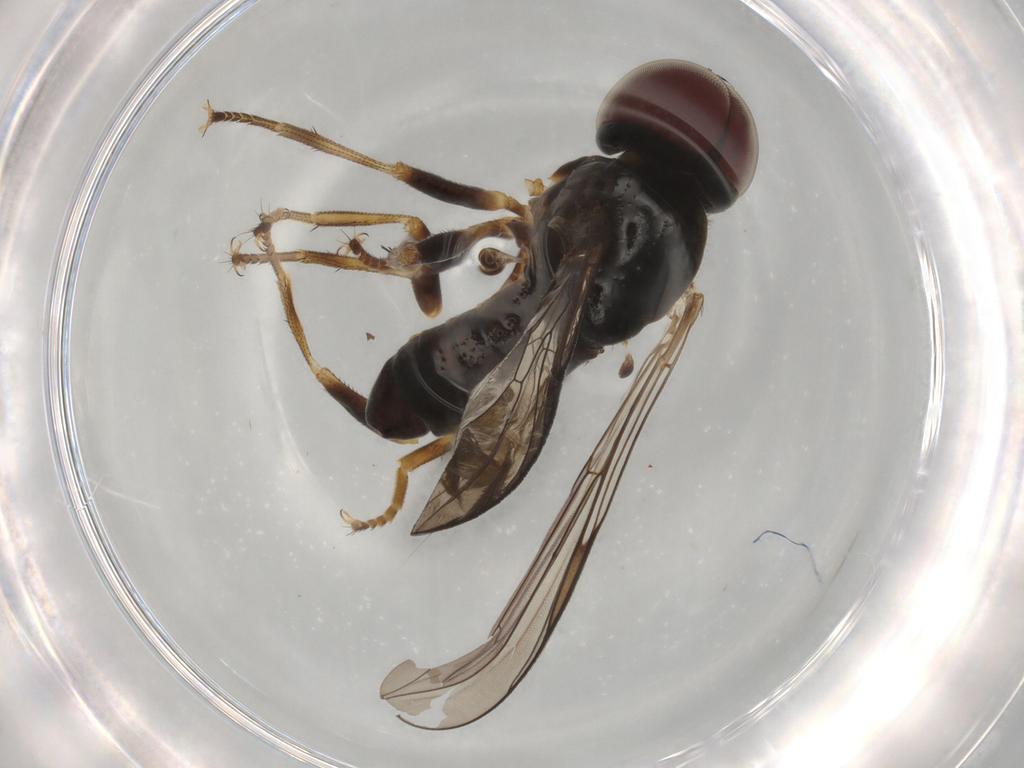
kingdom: Animalia
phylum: Arthropoda
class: Insecta
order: Diptera
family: Pipunculidae
